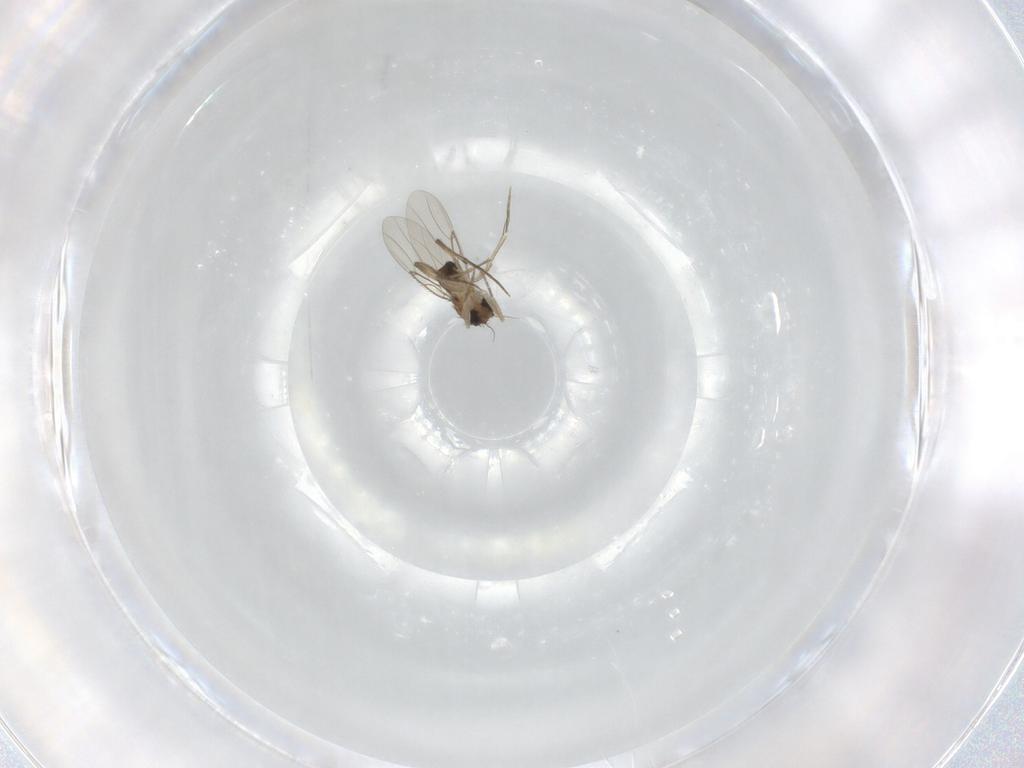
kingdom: Animalia
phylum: Arthropoda
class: Insecta
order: Diptera
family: Phoridae
